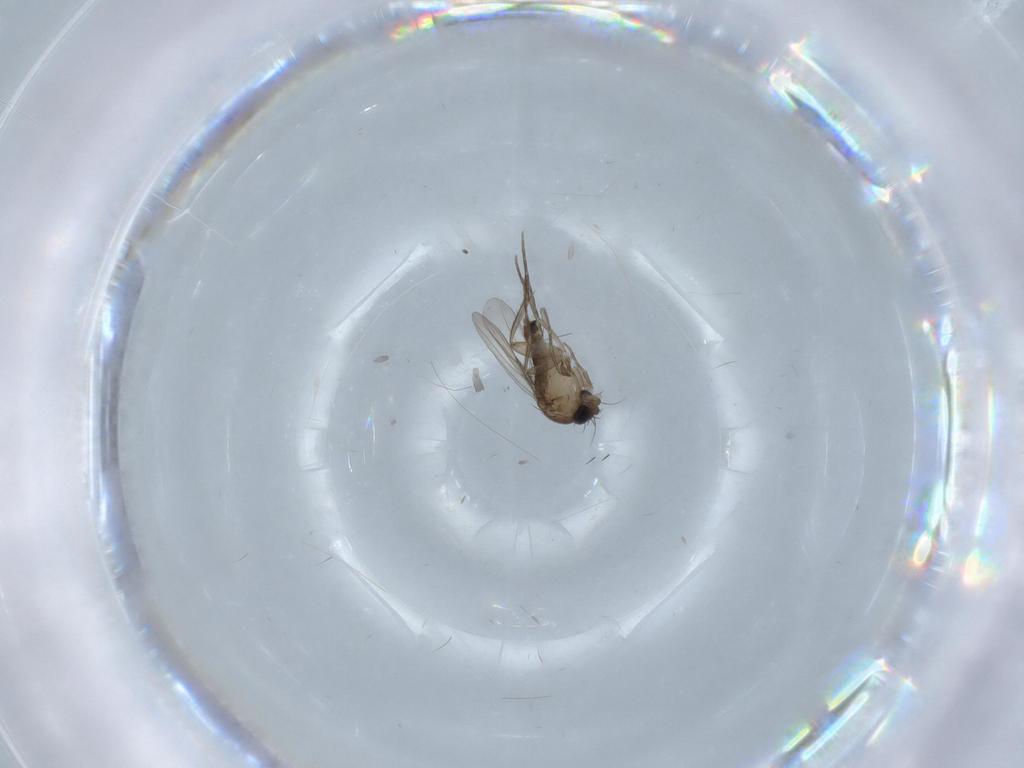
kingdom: Animalia
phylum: Arthropoda
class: Insecta
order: Diptera
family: Phoridae
